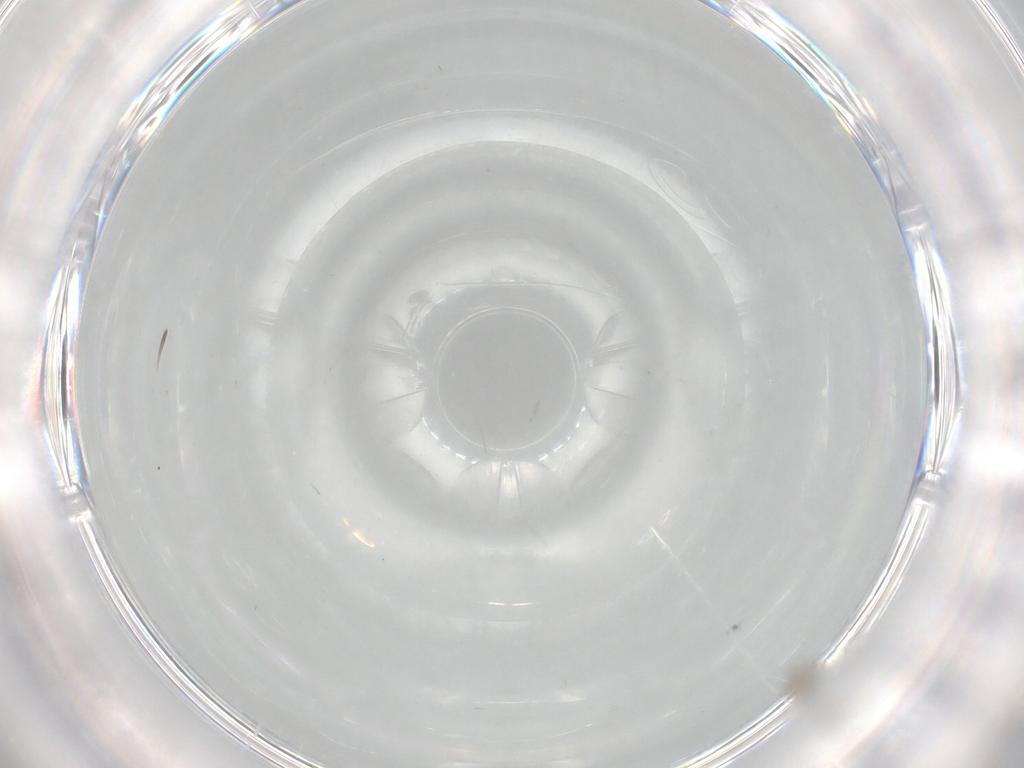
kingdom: Animalia
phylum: Arthropoda
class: Insecta
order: Diptera
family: Cecidomyiidae
